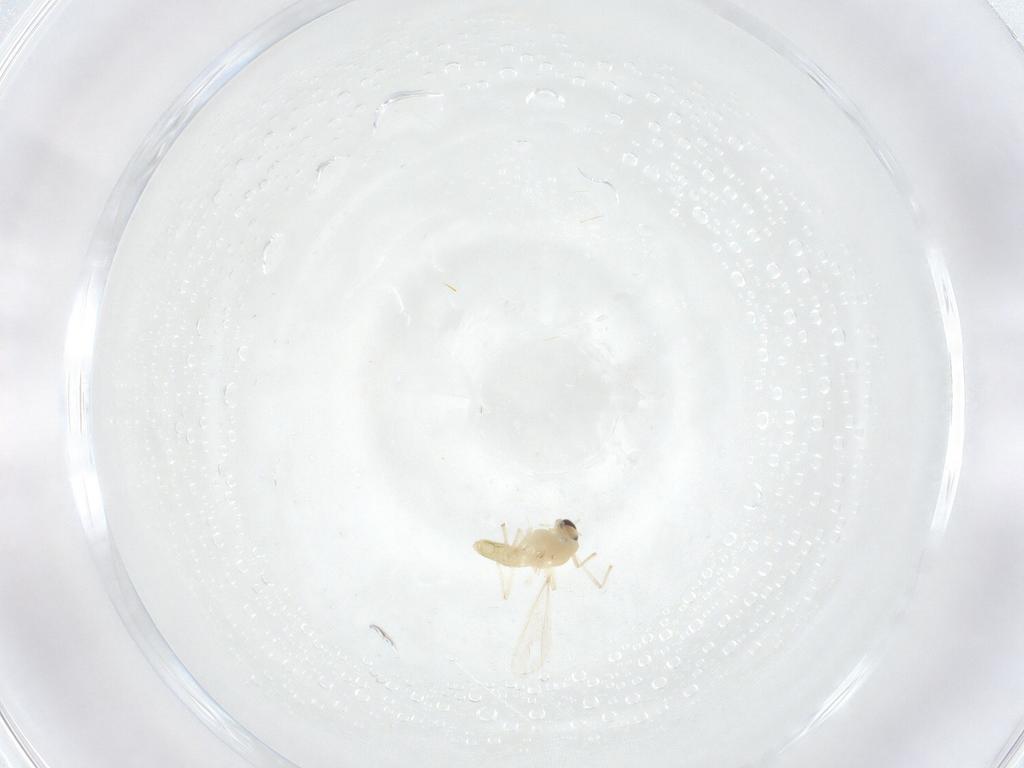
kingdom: Animalia
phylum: Arthropoda
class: Insecta
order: Diptera
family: Chironomidae
